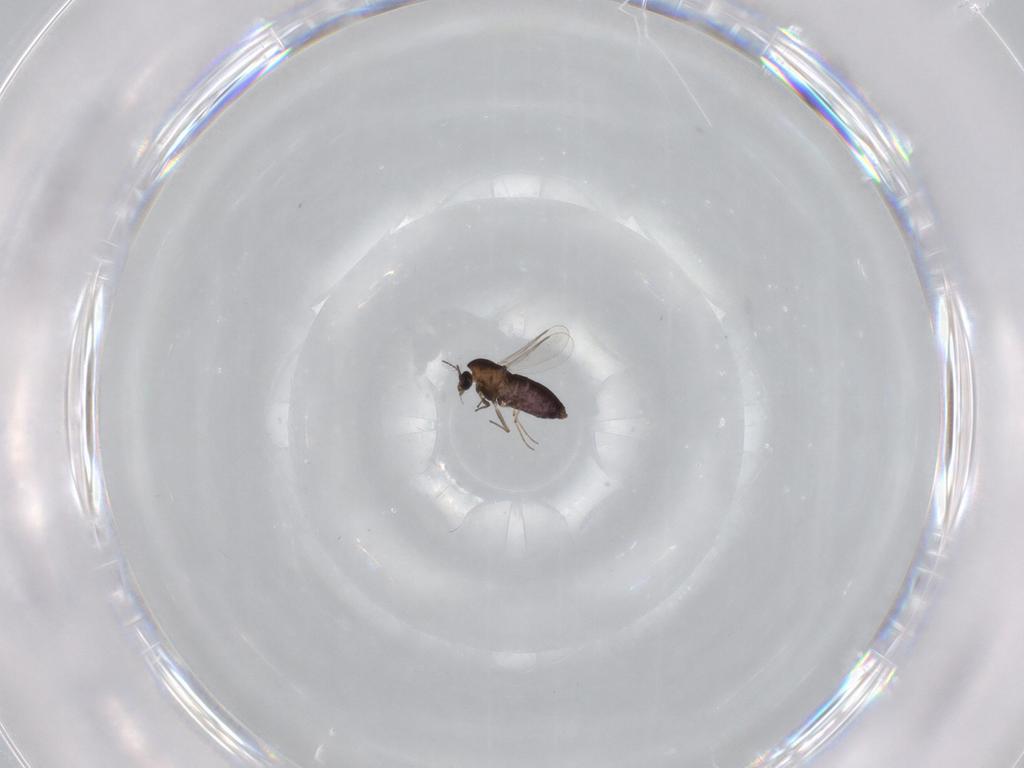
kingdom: Animalia
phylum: Arthropoda
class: Insecta
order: Diptera
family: Chironomidae
